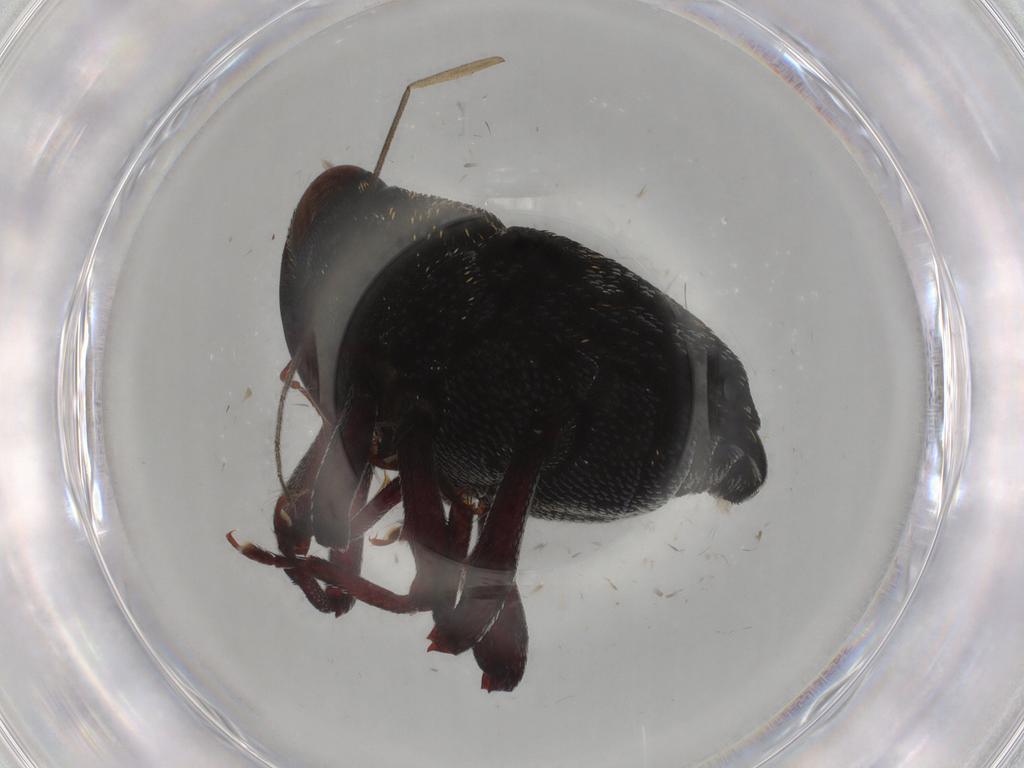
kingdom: Animalia
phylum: Arthropoda
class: Insecta
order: Coleoptera
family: Curculionidae
